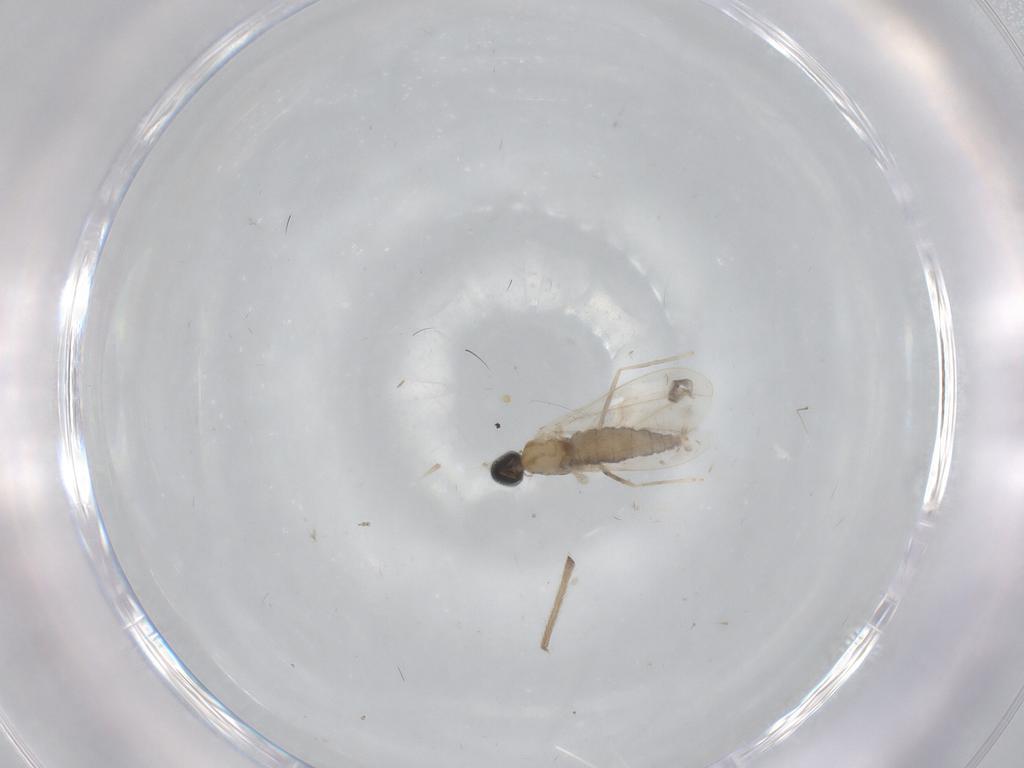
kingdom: Animalia
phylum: Arthropoda
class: Insecta
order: Diptera
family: Cecidomyiidae
